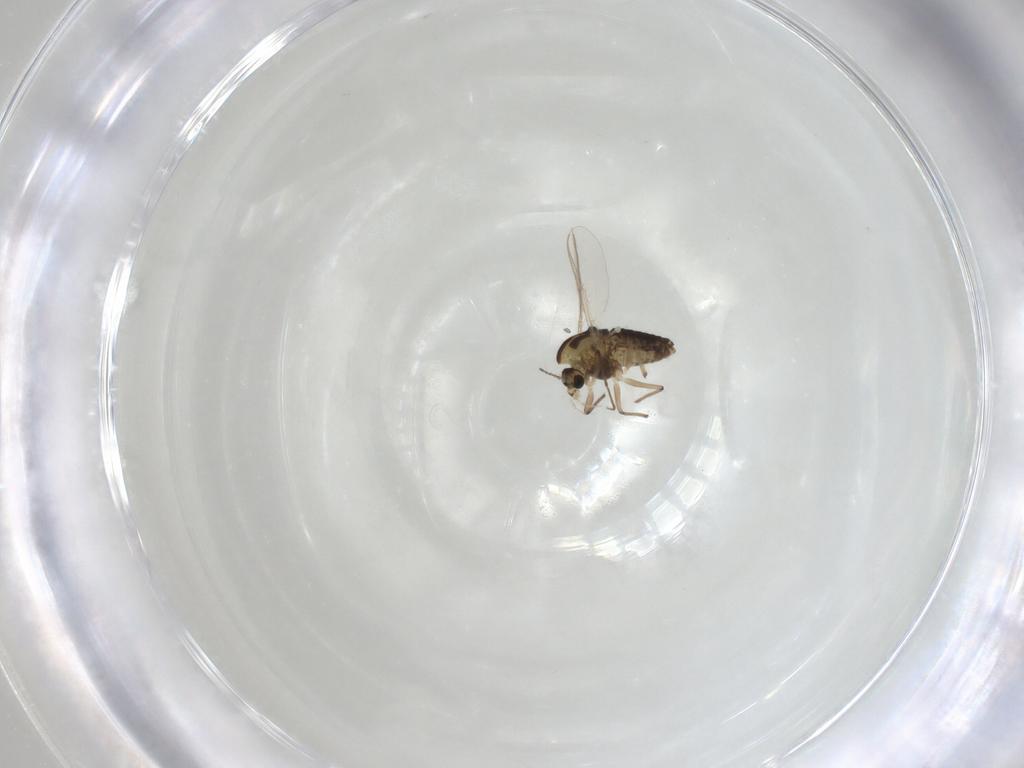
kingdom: Animalia
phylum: Arthropoda
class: Insecta
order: Diptera
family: Chironomidae
